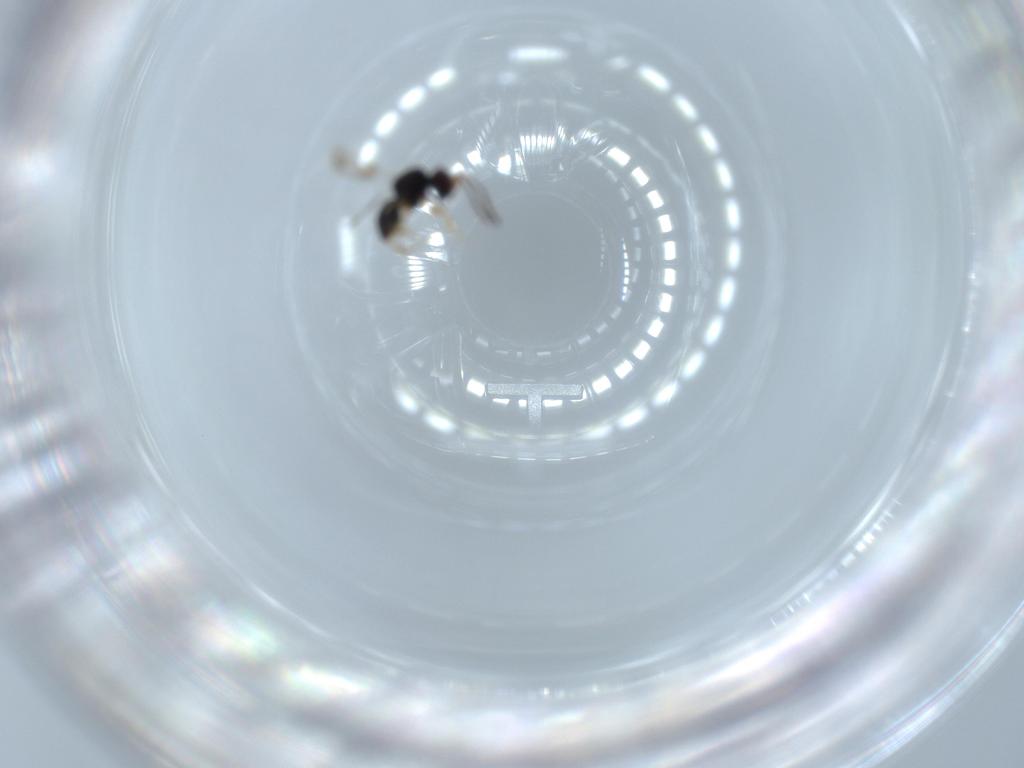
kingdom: Animalia
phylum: Arthropoda
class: Insecta
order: Hymenoptera
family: Ceraphronidae
